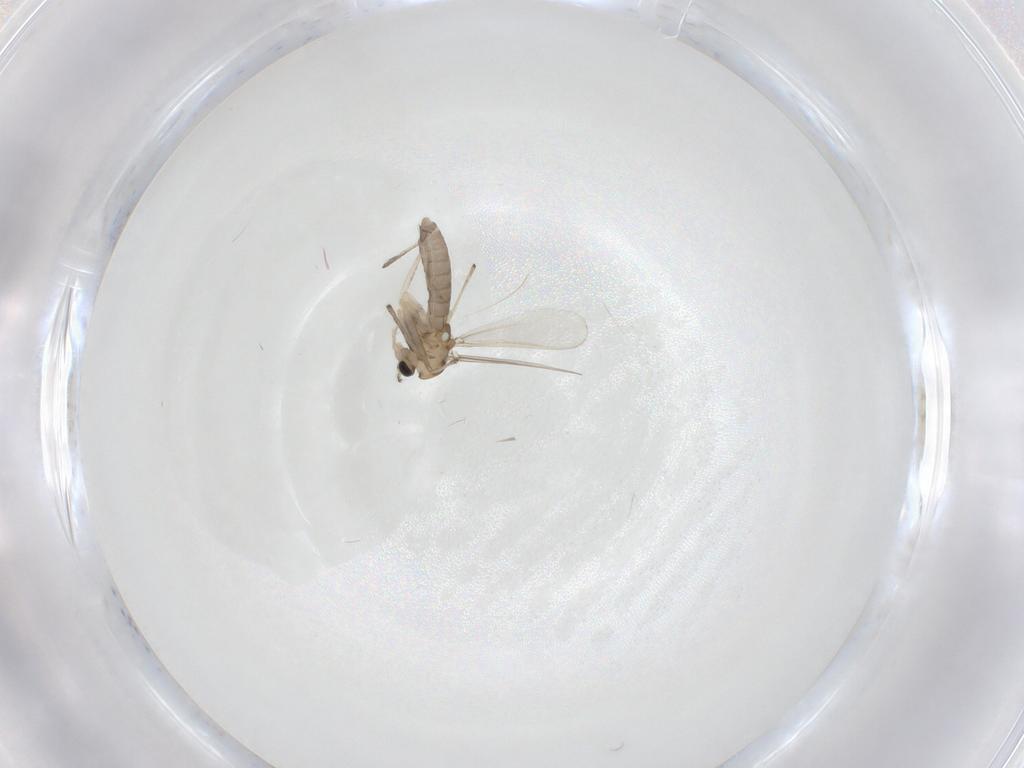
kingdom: Animalia
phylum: Arthropoda
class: Insecta
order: Diptera
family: Chironomidae
